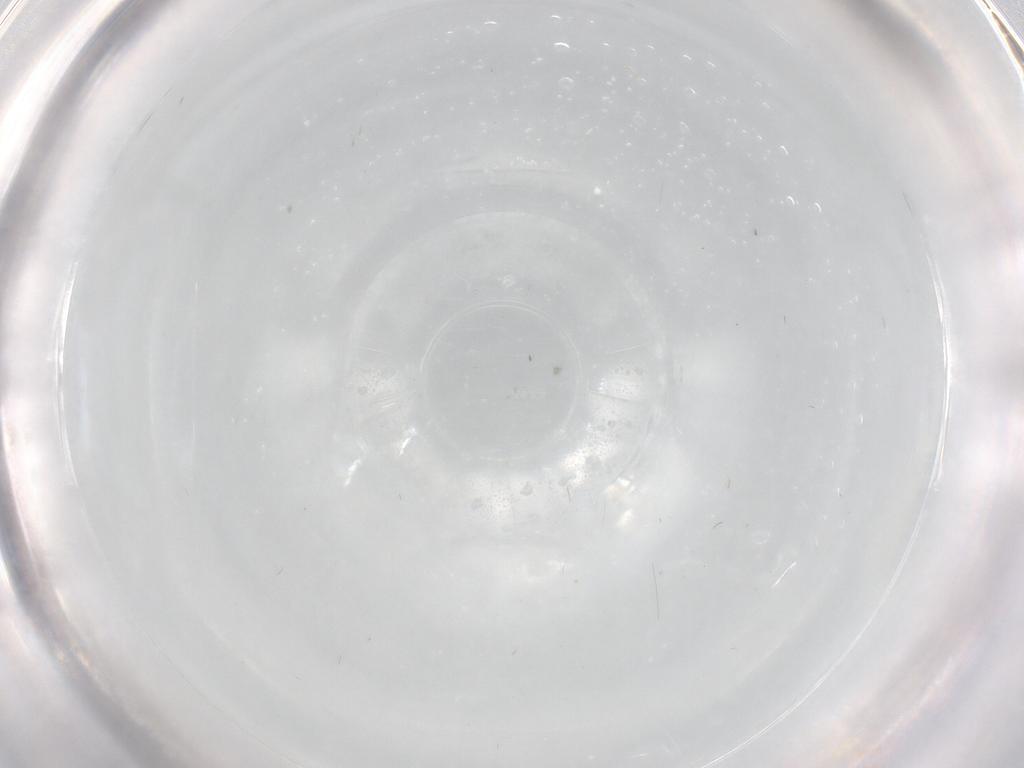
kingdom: Animalia
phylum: Arthropoda
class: Insecta
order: Diptera
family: Cecidomyiidae
